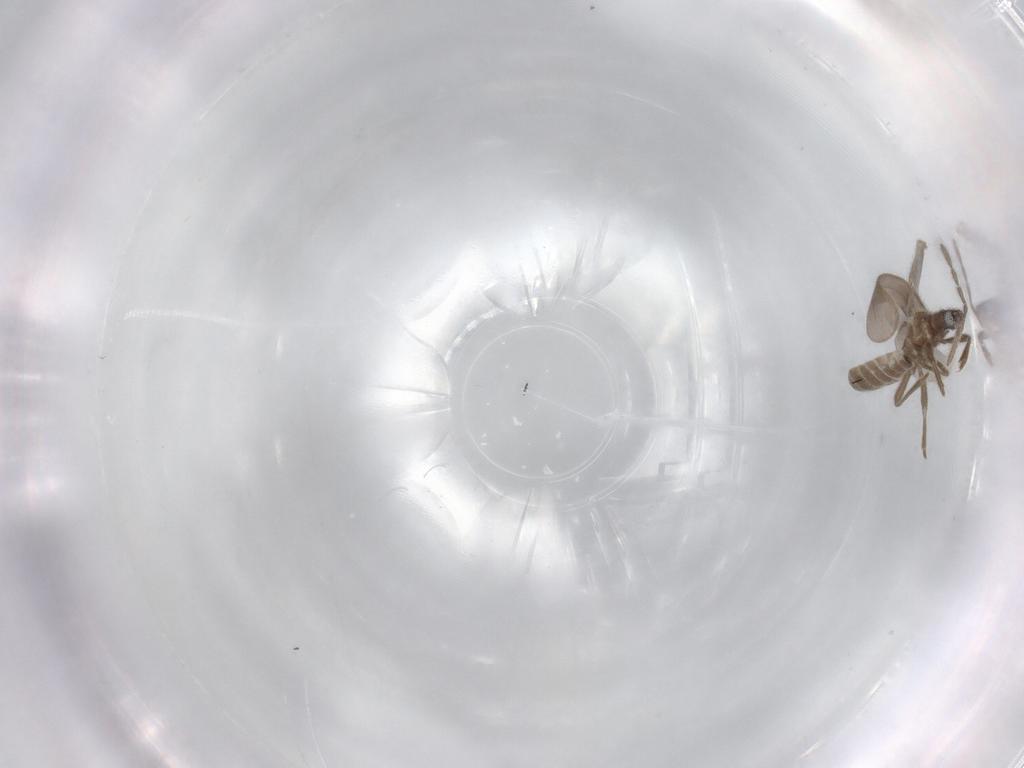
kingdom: Animalia
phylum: Arthropoda
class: Insecta
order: Hemiptera
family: Enicocephalidae
